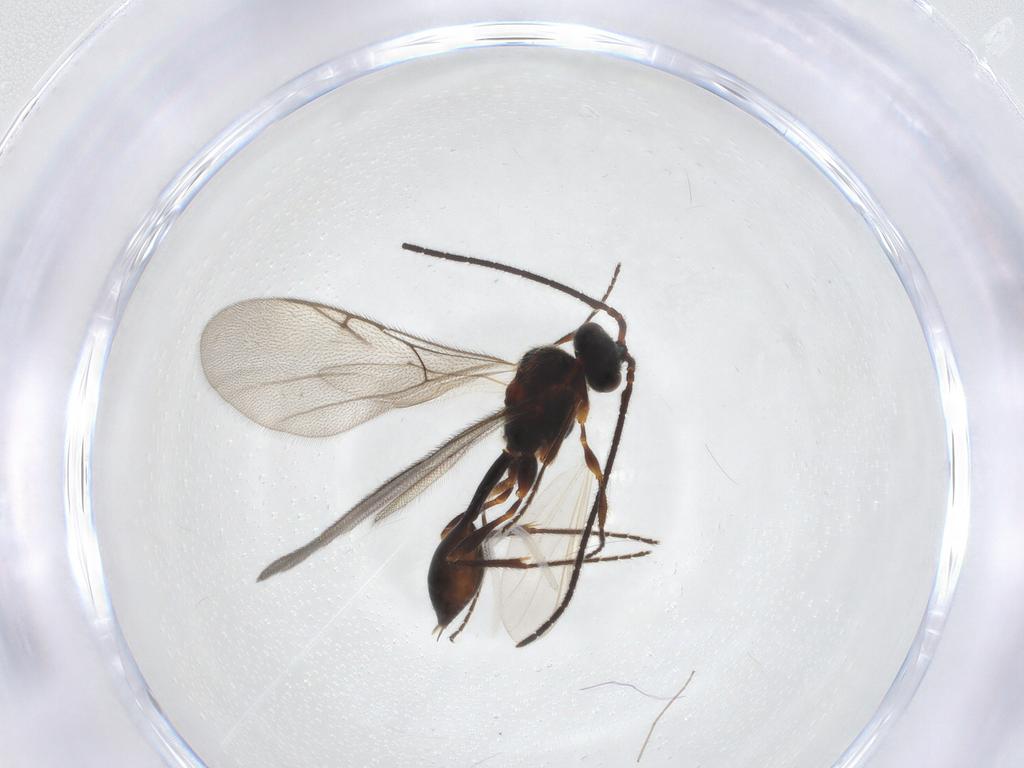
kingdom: Animalia
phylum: Arthropoda
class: Insecta
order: Hymenoptera
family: Diapriidae
